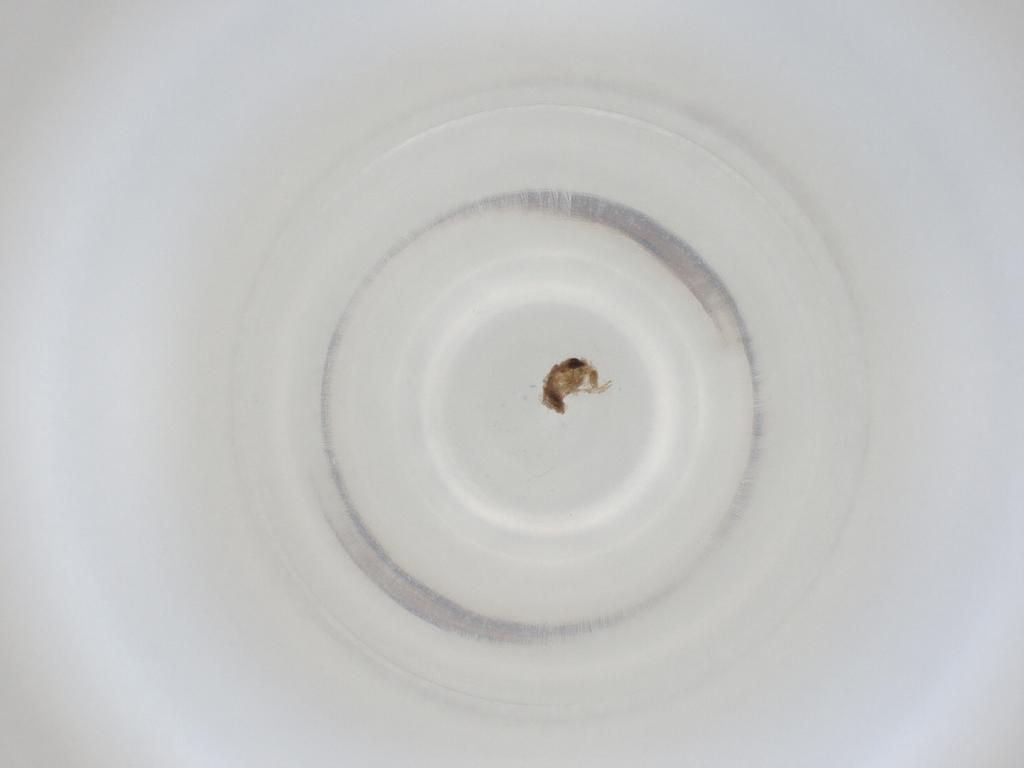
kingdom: Animalia
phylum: Arthropoda
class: Insecta
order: Diptera
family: Cecidomyiidae
